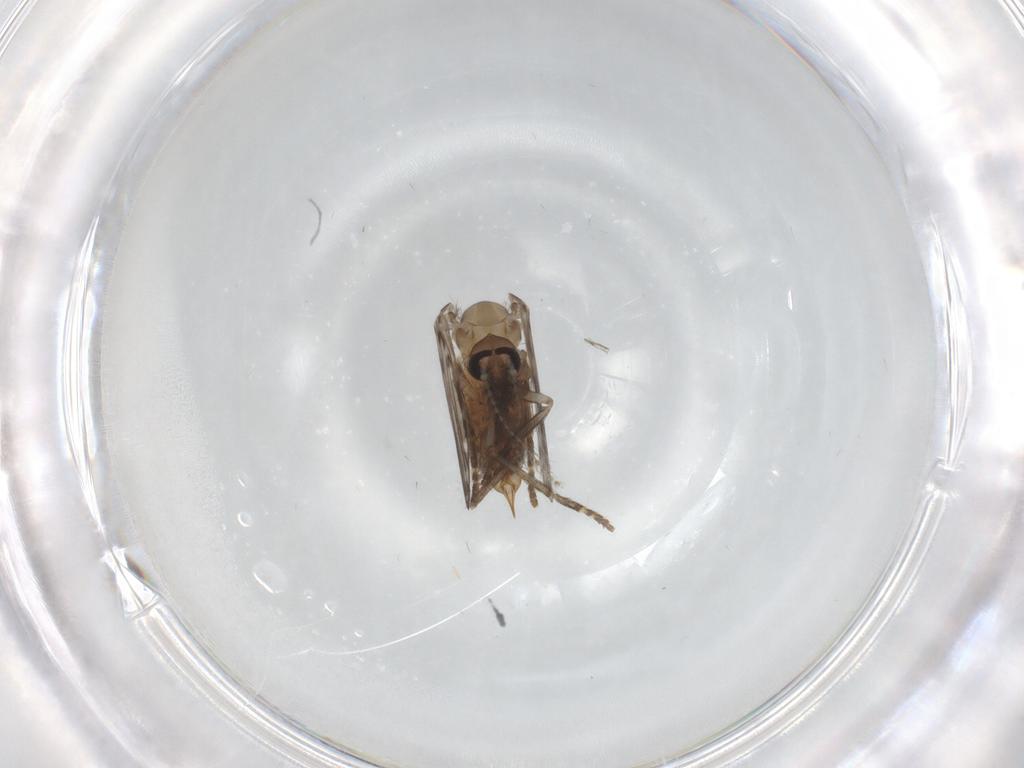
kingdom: Animalia
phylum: Arthropoda
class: Insecta
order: Diptera
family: Psychodidae
